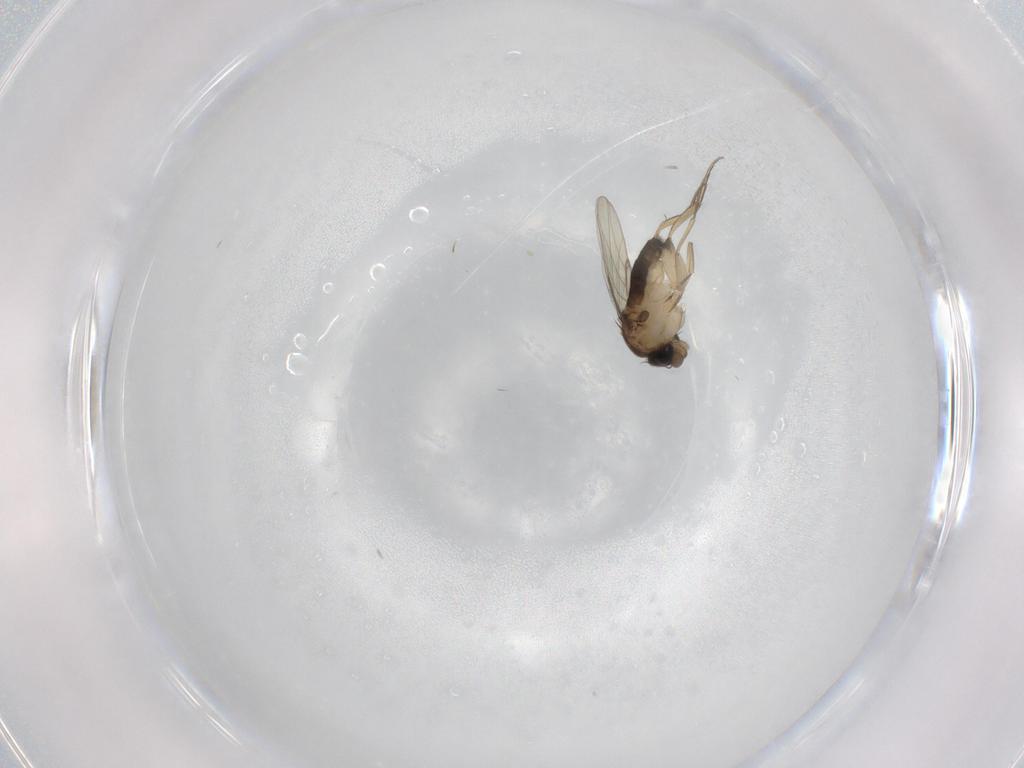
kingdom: Animalia
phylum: Arthropoda
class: Insecta
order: Diptera
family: Phoridae
